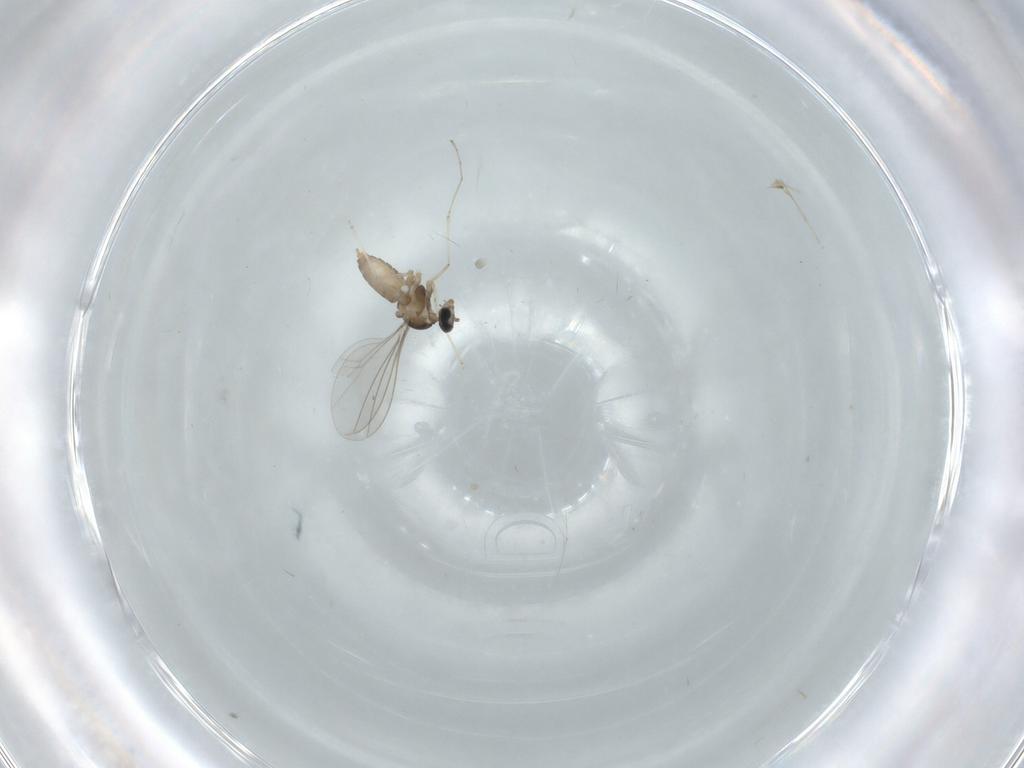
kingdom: Animalia
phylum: Arthropoda
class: Insecta
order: Diptera
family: Cecidomyiidae
